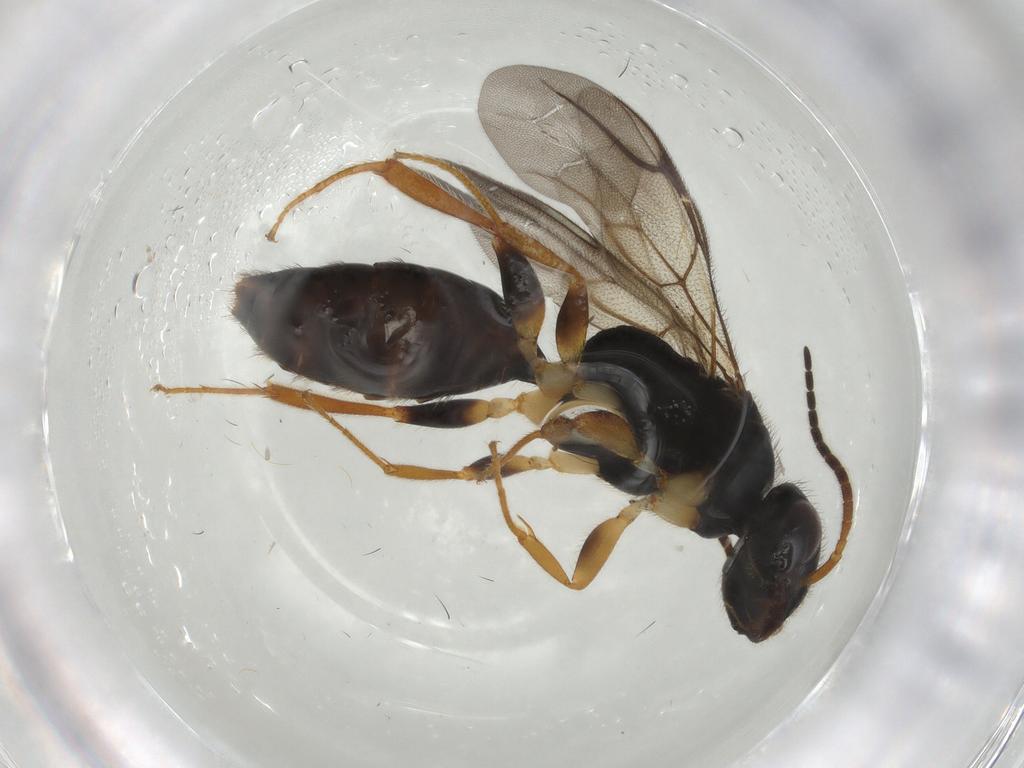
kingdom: Animalia
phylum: Arthropoda
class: Insecta
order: Hymenoptera
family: Bethylidae
